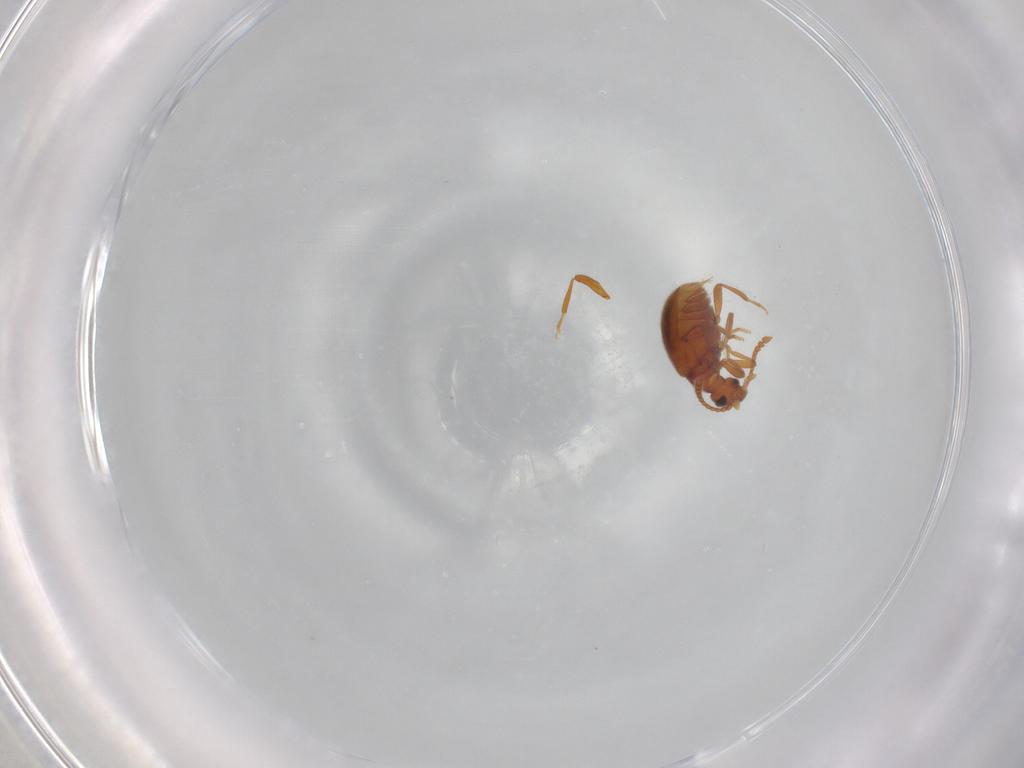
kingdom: Animalia
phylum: Arthropoda
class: Insecta
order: Coleoptera
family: Aderidae
